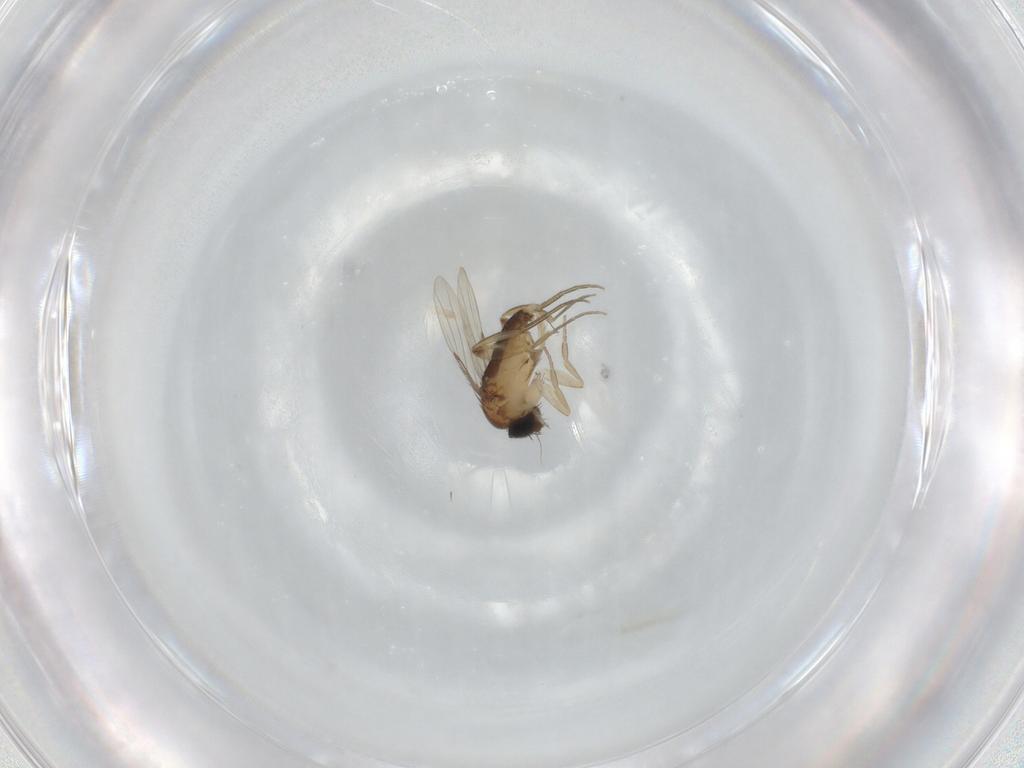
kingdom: Animalia
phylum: Arthropoda
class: Insecta
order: Diptera
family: Phoridae
